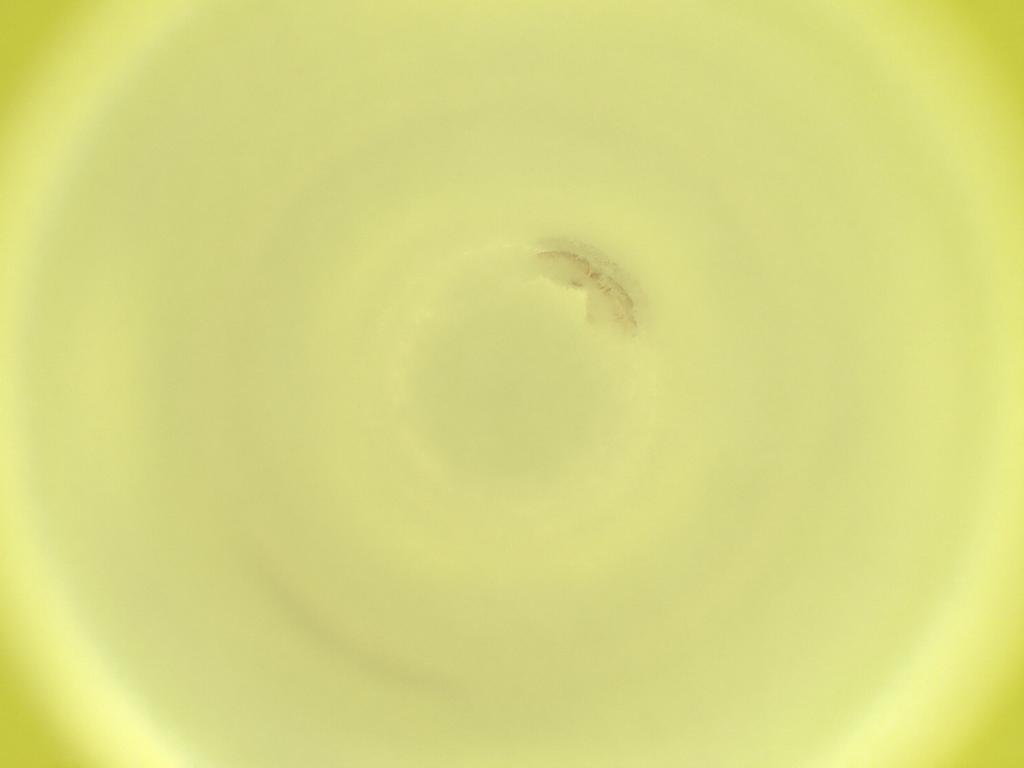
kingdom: Animalia
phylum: Arthropoda
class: Insecta
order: Diptera
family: Cecidomyiidae
